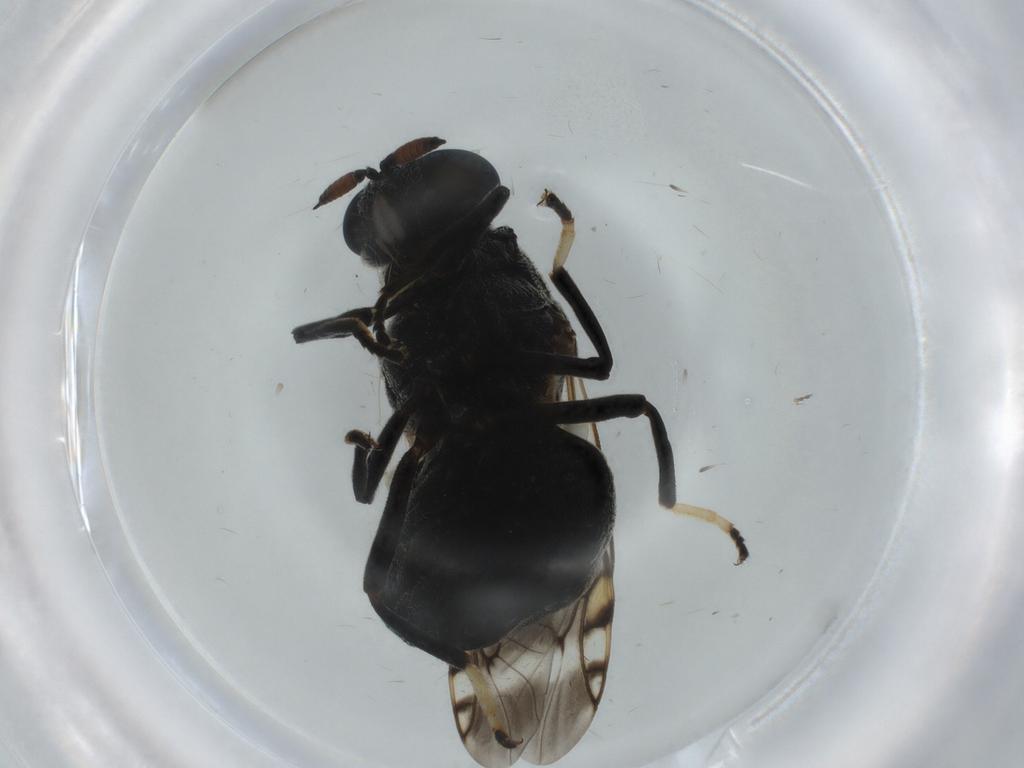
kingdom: Animalia
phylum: Arthropoda
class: Insecta
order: Diptera
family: Stratiomyidae
